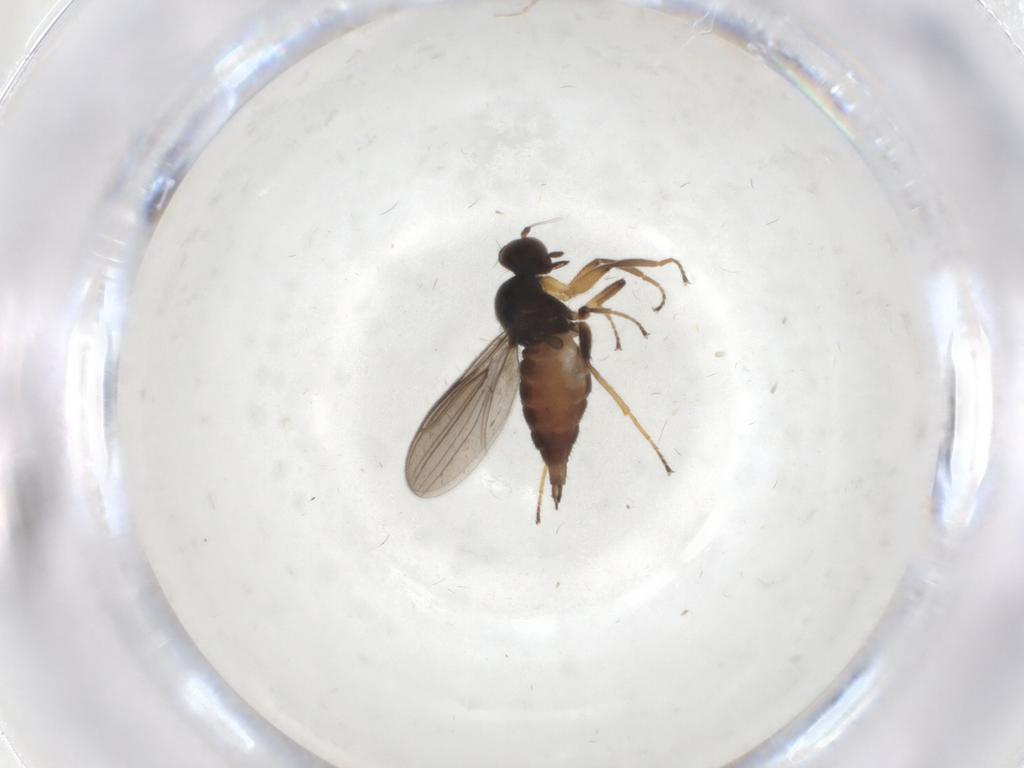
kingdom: Animalia
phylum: Arthropoda
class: Insecta
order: Diptera
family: Hybotidae
